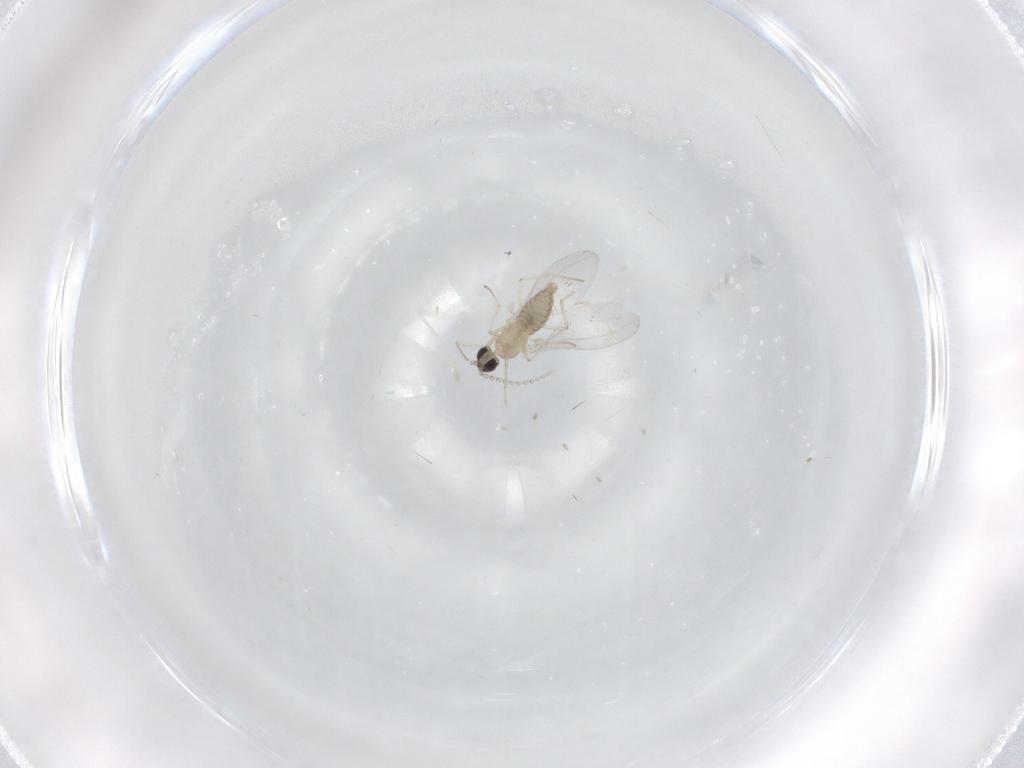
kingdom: Animalia
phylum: Arthropoda
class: Insecta
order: Diptera
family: Cecidomyiidae
